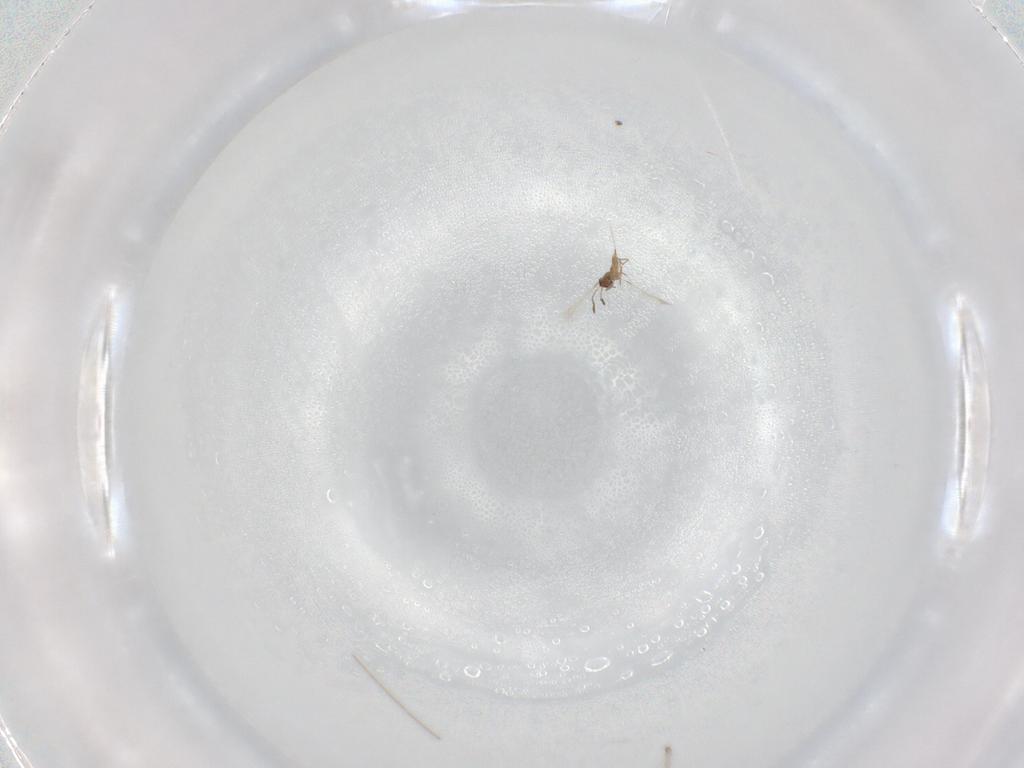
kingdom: Animalia
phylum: Arthropoda
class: Insecta
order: Hymenoptera
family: Mymaridae
